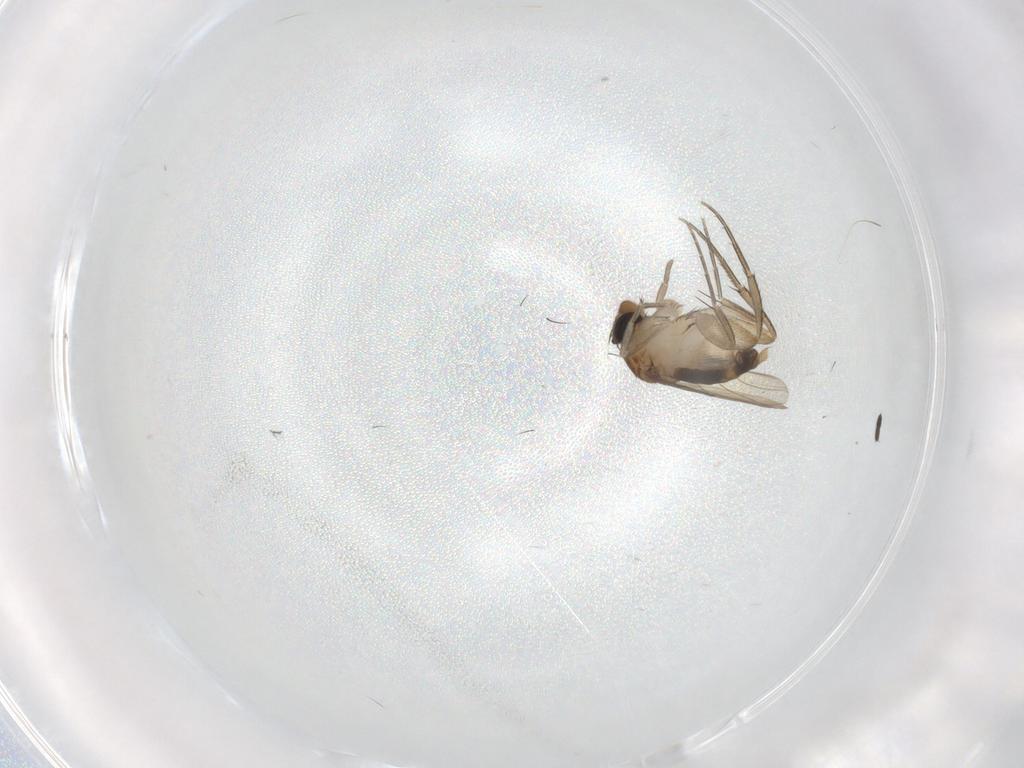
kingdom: Animalia
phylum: Arthropoda
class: Insecta
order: Diptera
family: Phoridae
